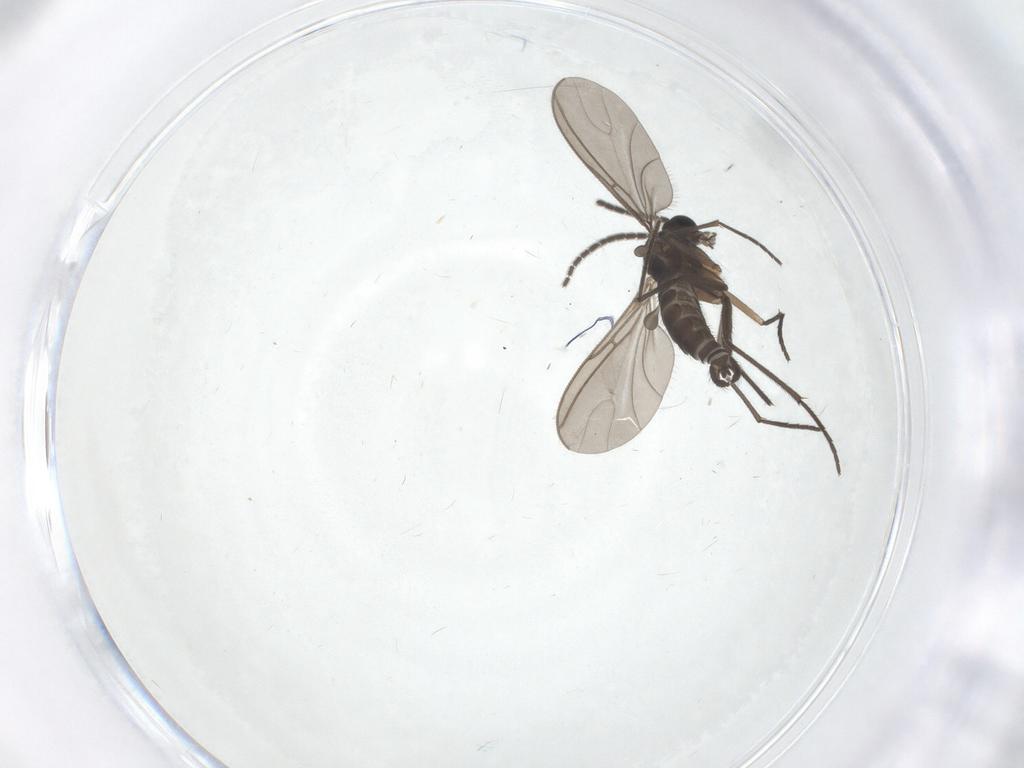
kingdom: Animalia
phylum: Arthropoda
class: Insecta
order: Diptera
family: Sciaridae
